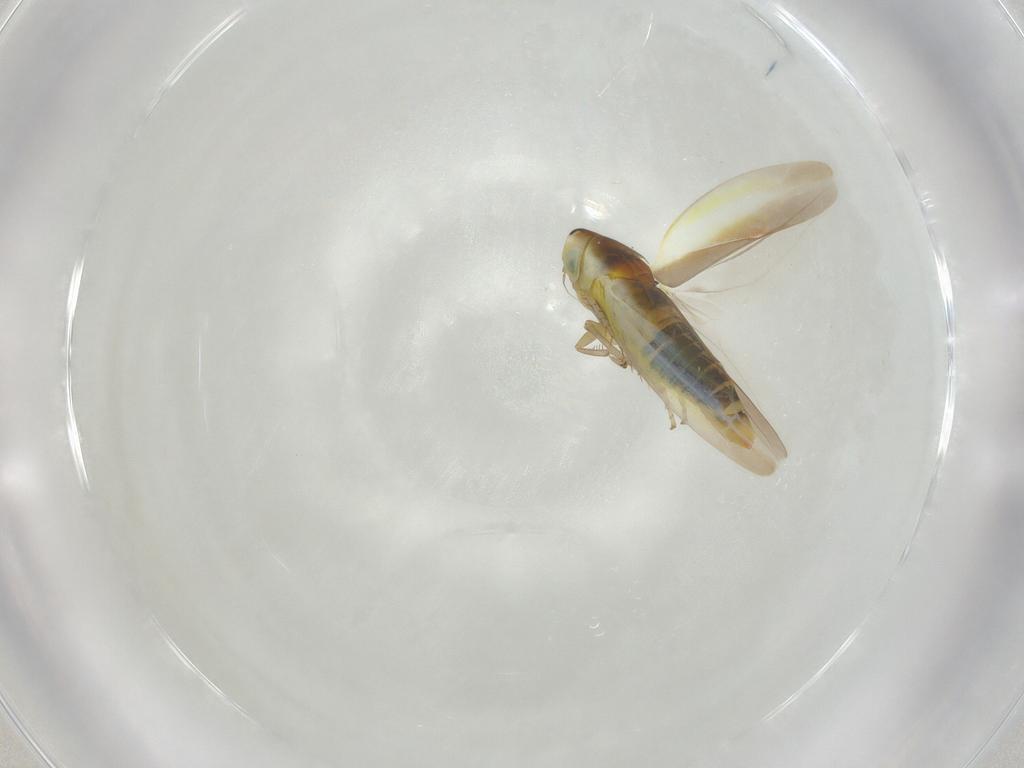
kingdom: Animalia
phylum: Arthropoda
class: Insecta
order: Hemiptera
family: Cicadellidae
